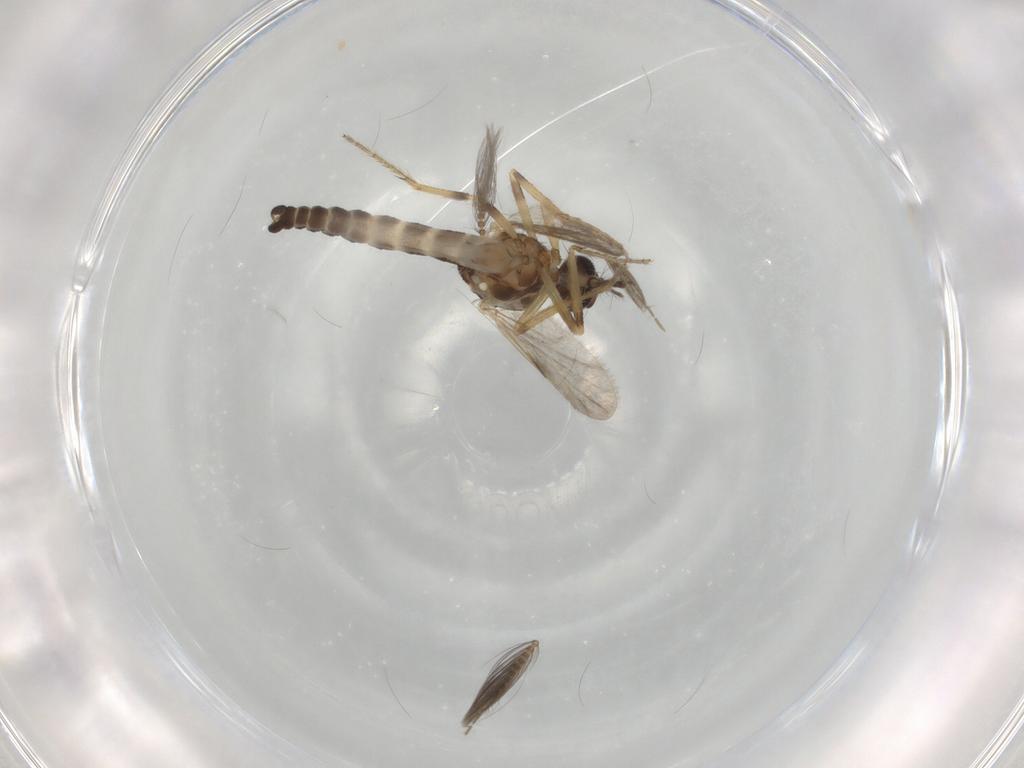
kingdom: Animalia
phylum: Arthropoda
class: Insecta
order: Diptera
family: Ceratopogonidae
